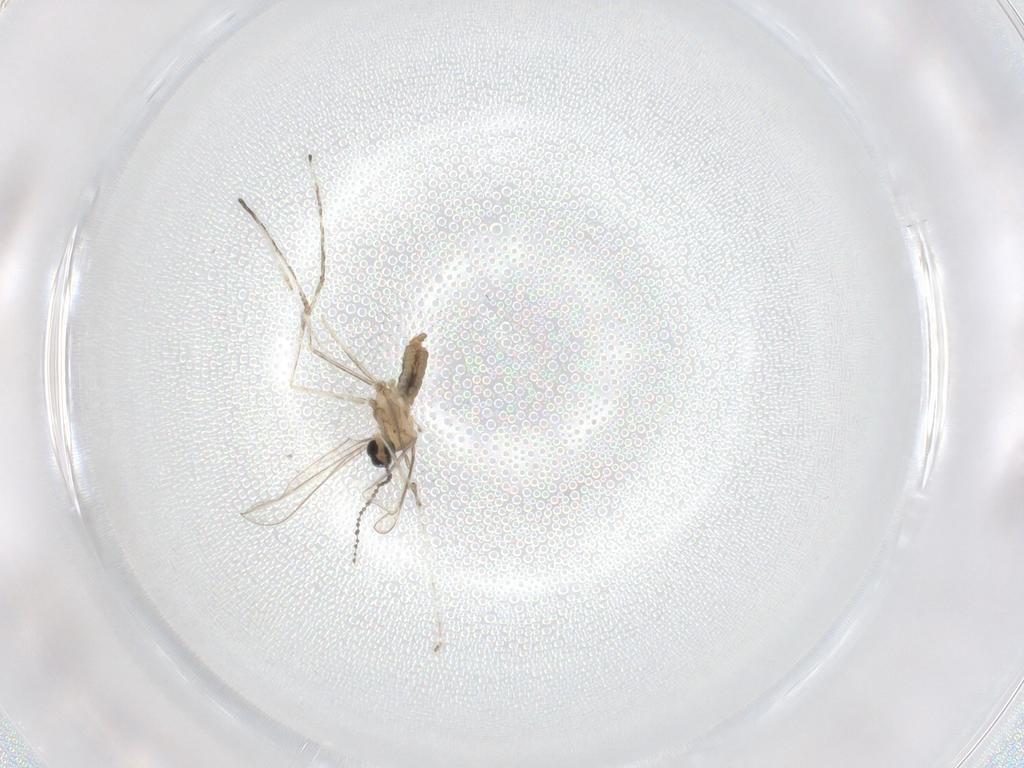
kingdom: Animalia
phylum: Arthropoda
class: Insecta
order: Diptera
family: Cecidomyiidae
